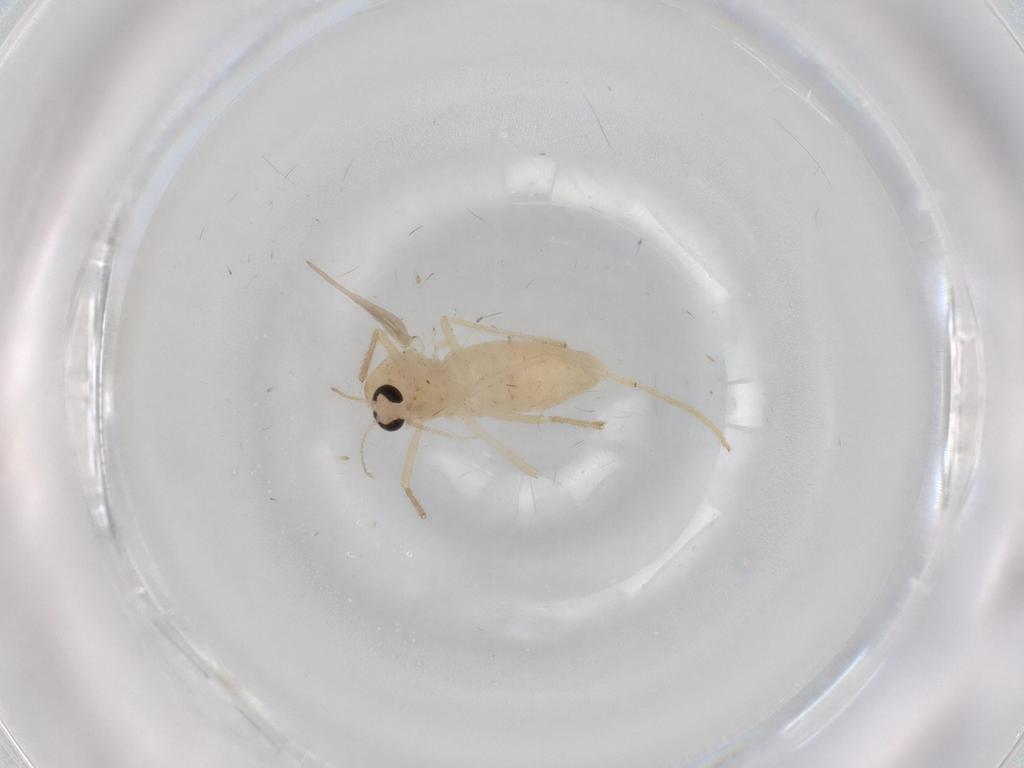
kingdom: Animalia
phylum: Arthropoda
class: Insecta
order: Diptera
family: Chironomidae
